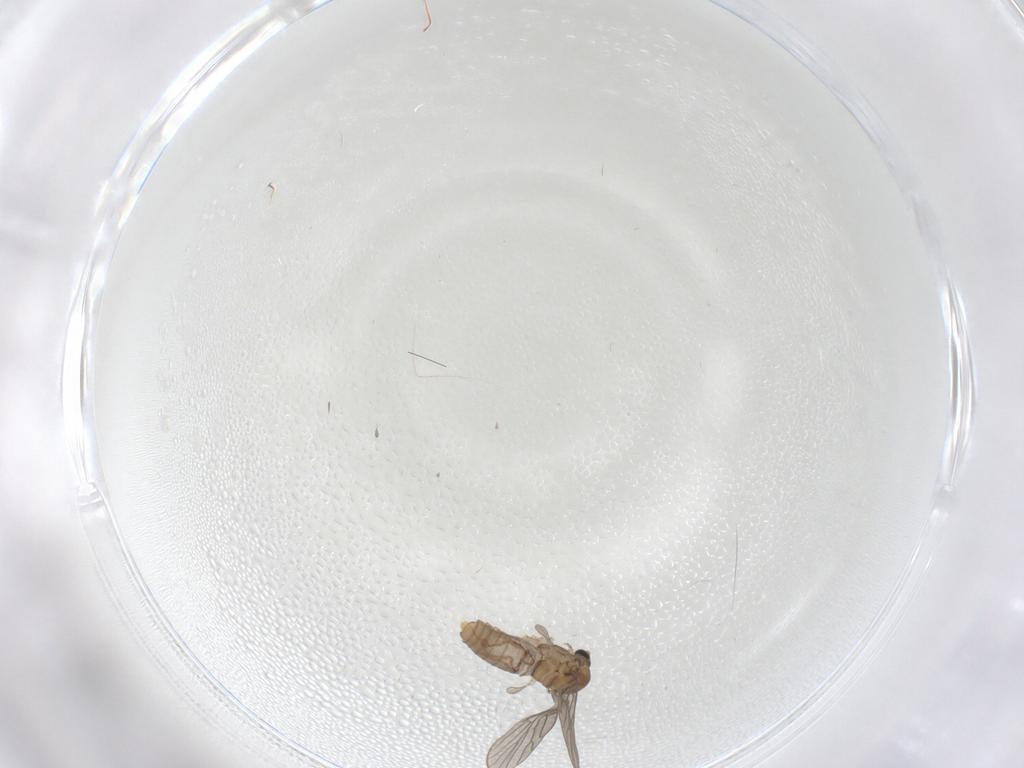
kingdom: Animalia
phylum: Arthropoda
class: Insecta
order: Diptera
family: Psychodidae
